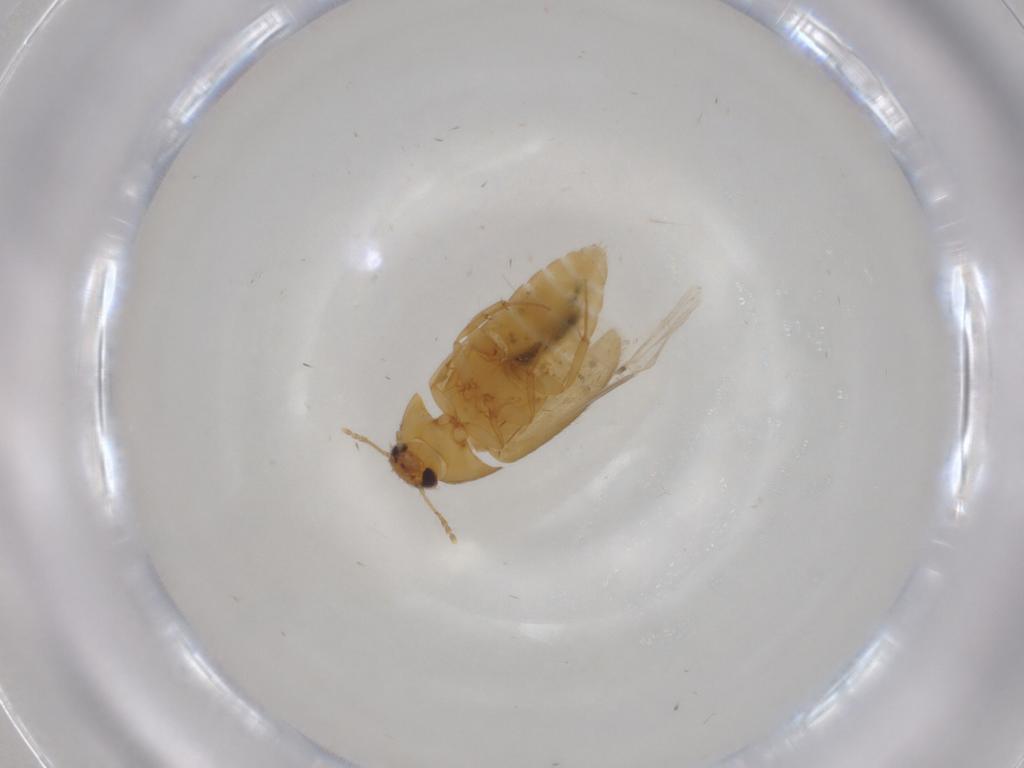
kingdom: Animalia
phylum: Arthropoda
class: Insecta
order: Coleoptera
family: Mycetophagidae
